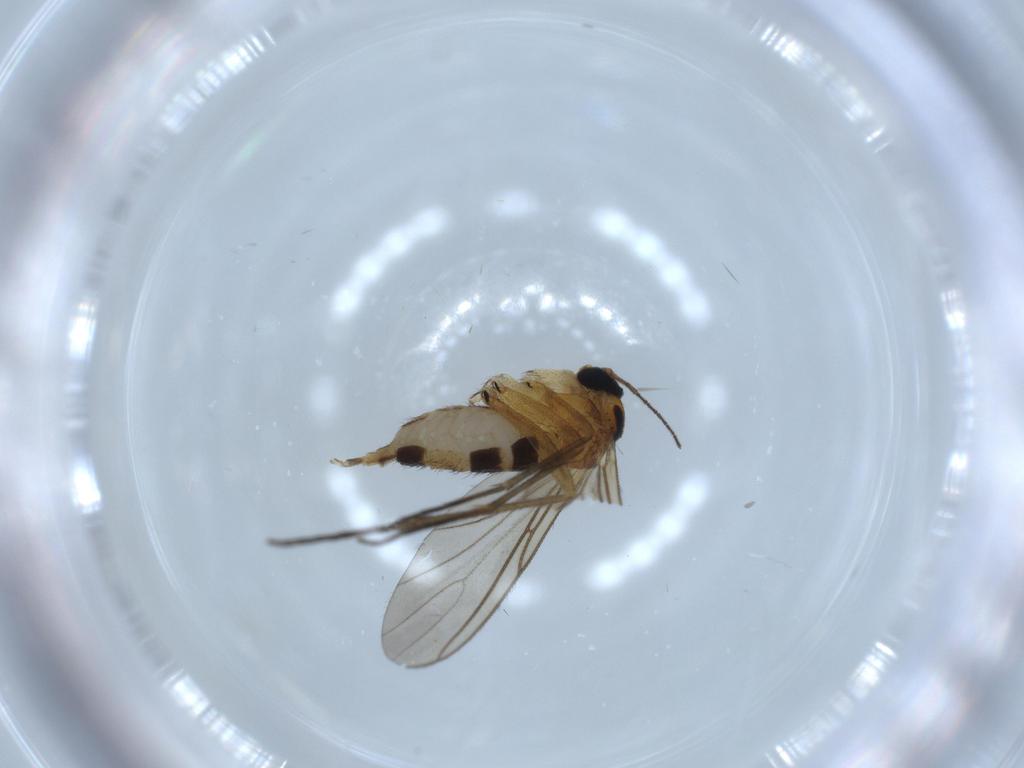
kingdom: Animalia
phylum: Arthropoda
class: Insecta
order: Diptera
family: Sciaridae
